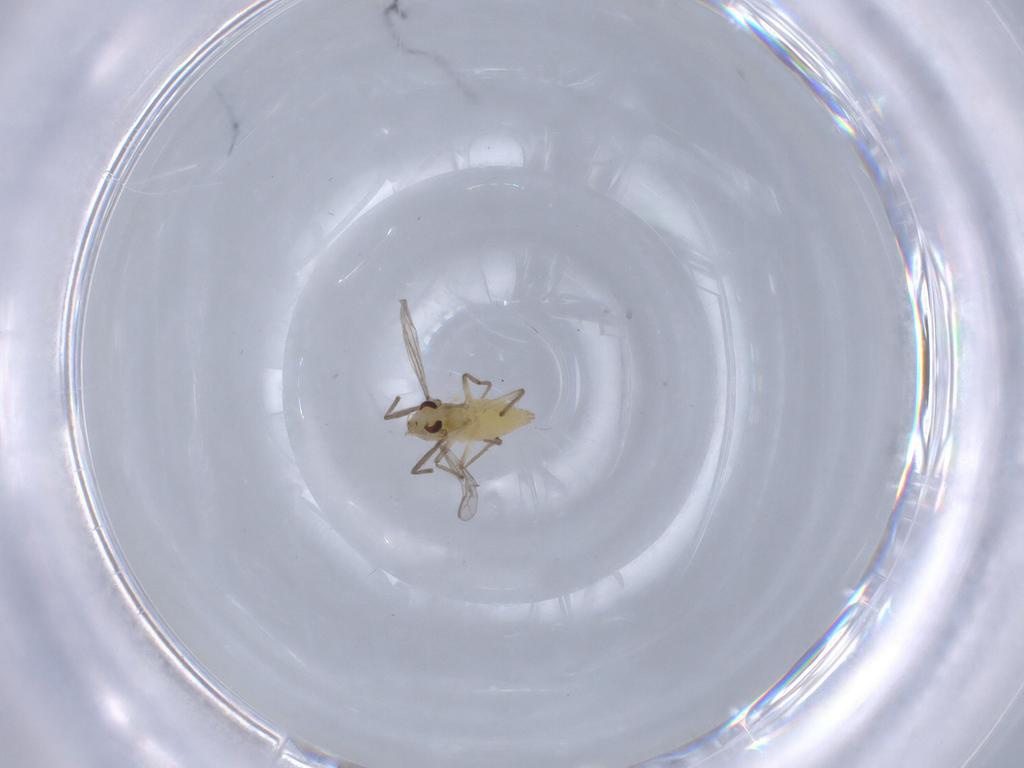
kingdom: Animalia
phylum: Arthropoda
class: Insecta
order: Diptera
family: Chironomidae
